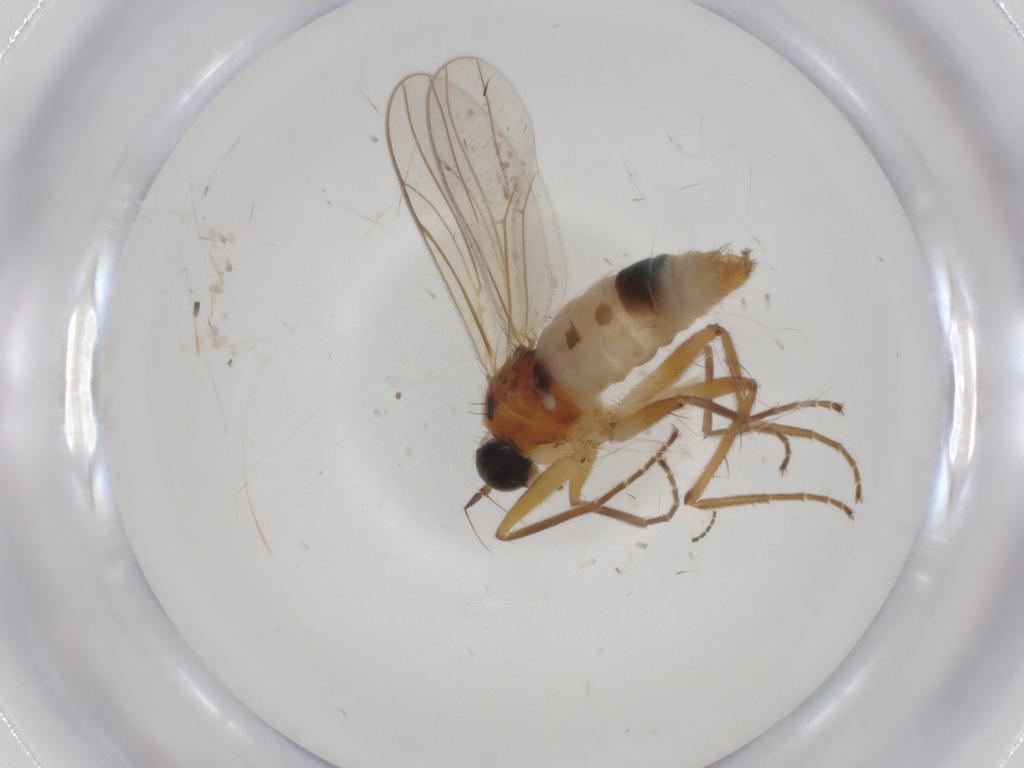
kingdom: Animalia
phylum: Arthropoda
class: Insecta
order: Diptera
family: Hybotidae
